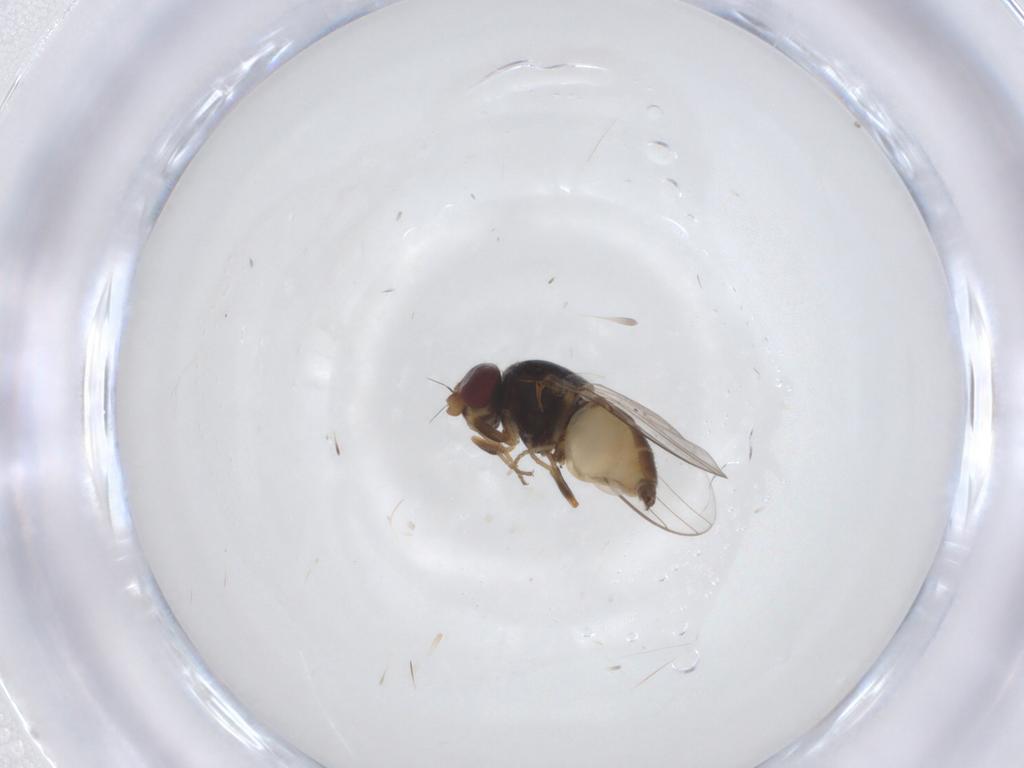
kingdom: Animalia
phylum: Arthropoda
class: Insecta
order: Diptera
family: Chloropidae
